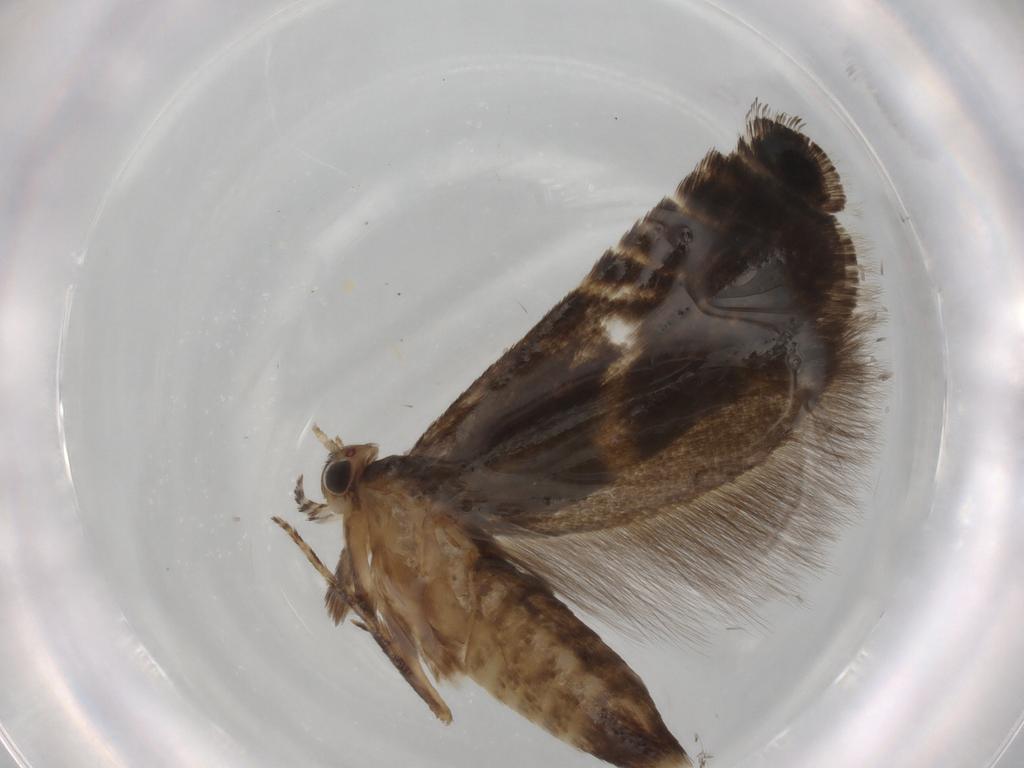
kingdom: Animalia
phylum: Arthropoda
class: Insecta
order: Lepidoptera
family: Glyphipterigidae
